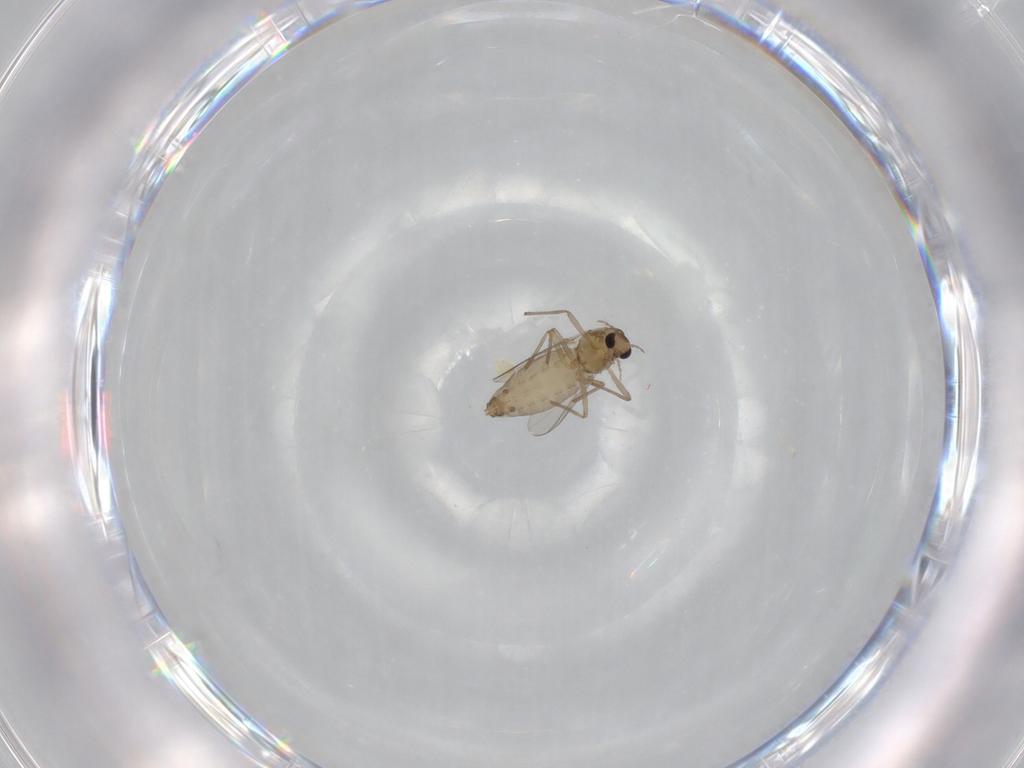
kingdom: Animalia
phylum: Arthropoda
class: Insecta
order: Diptera
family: Chironomidae
